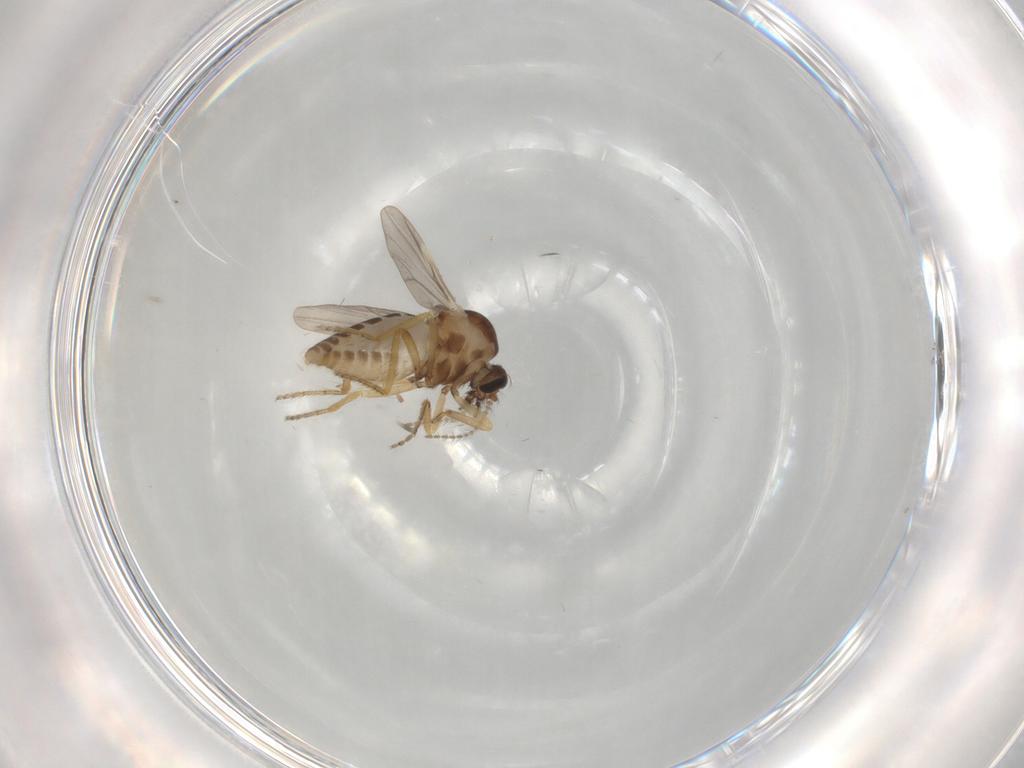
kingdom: Animalia
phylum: Arthropoda
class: Insecta
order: Diptera
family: Ceratopogonidae
